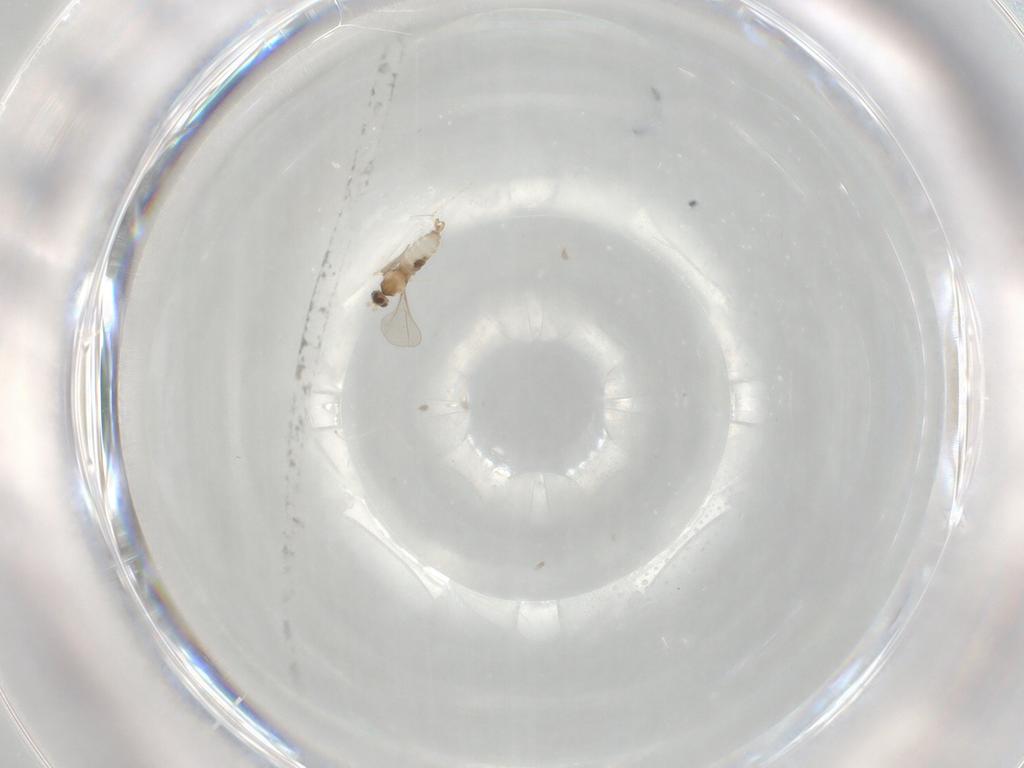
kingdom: Animalia
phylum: Arthropoda
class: Insecta
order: Diptera
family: Cecidomyiidae
